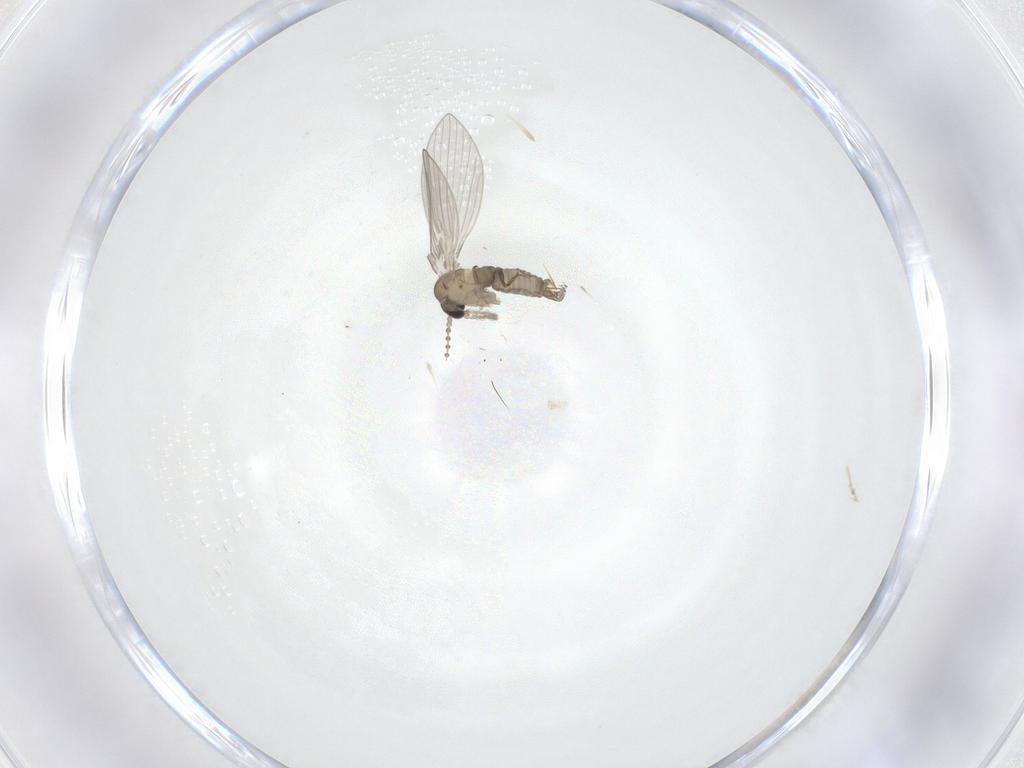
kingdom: Animalia
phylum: Arthropoda
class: Insecta
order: Diptera
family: Psychodidae
